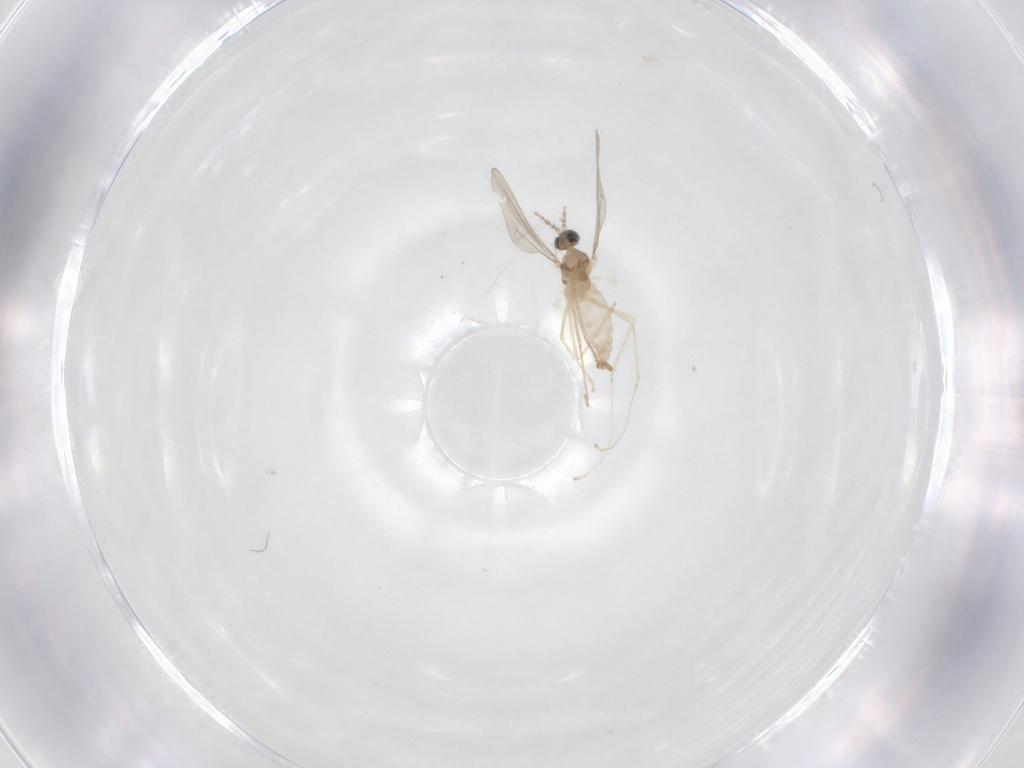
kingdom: Animalia
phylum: Arthropoda
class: Insecta
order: Diptera
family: Cecidomyiidae
